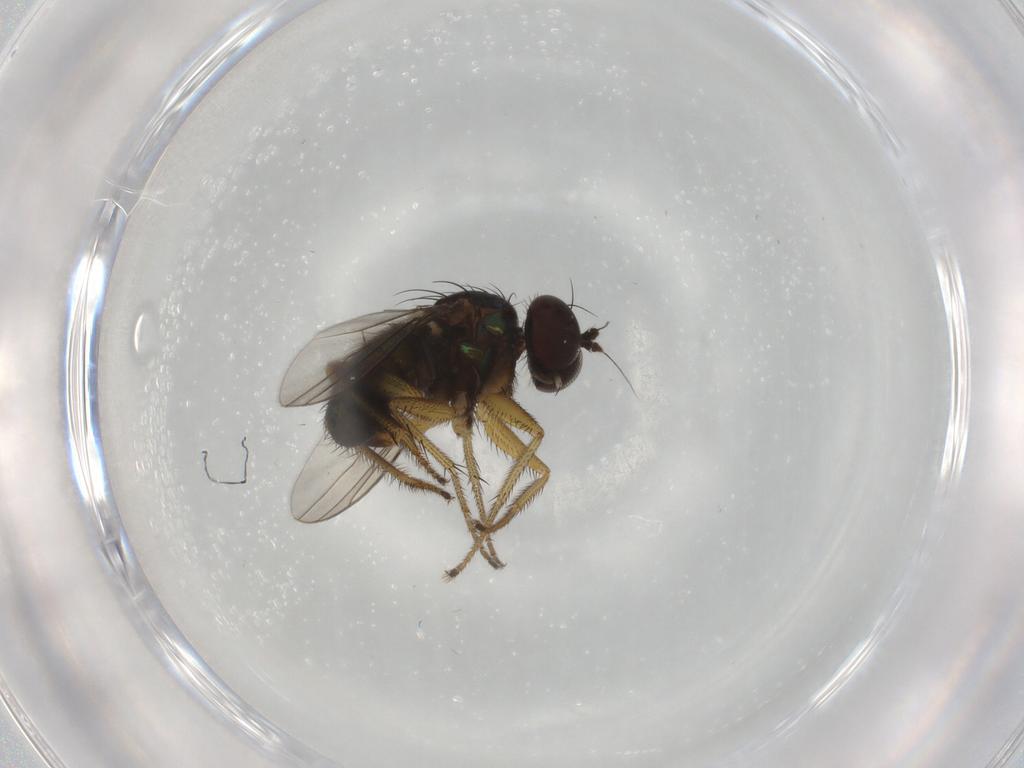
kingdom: Animalia
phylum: Arthropoda
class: Insecta
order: Diptera
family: Dolichopodidae
